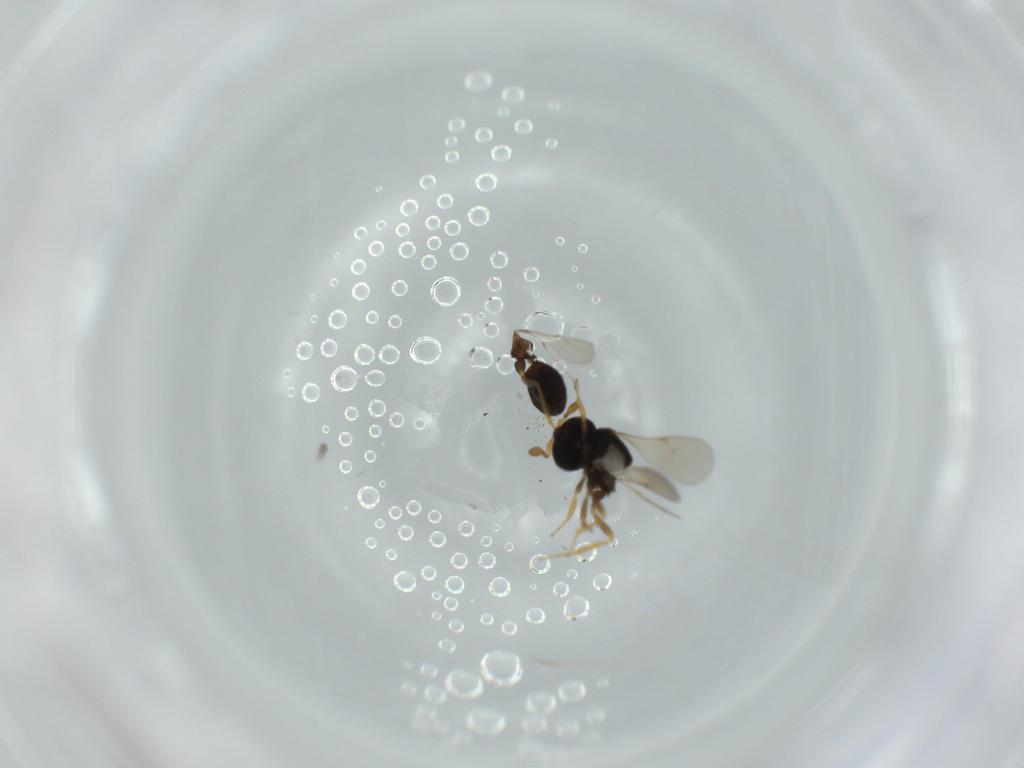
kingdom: Animalia
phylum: Arthropoda
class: Insecta
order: Hymenoptera
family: Scelionidae
